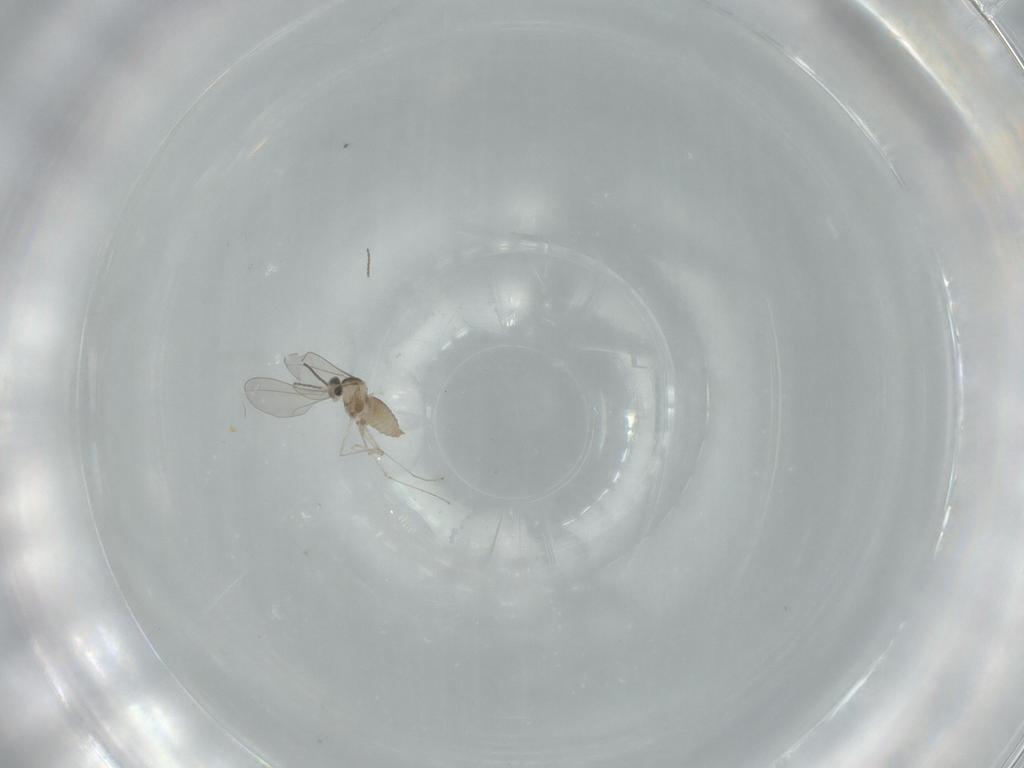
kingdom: Animalia
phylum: Arthropoda
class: Insecta
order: Diptera
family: Cecidomyiidae
